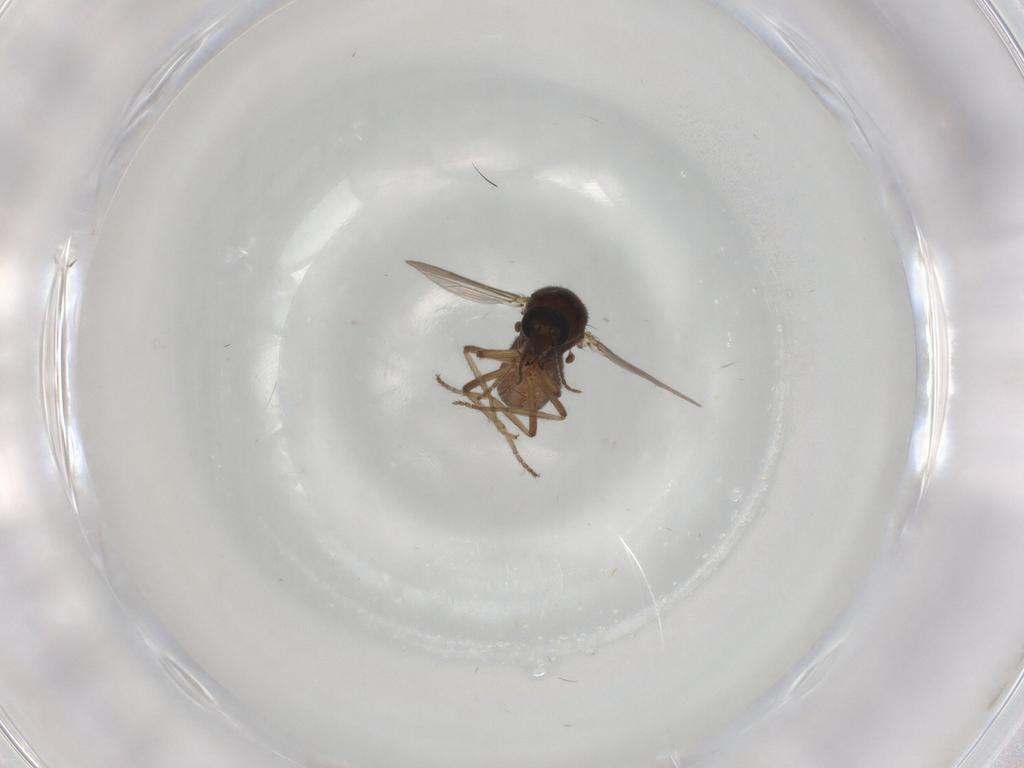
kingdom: Animalia
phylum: Arthropoda
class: Insecta
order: Diptera
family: Ceratopogonidae
